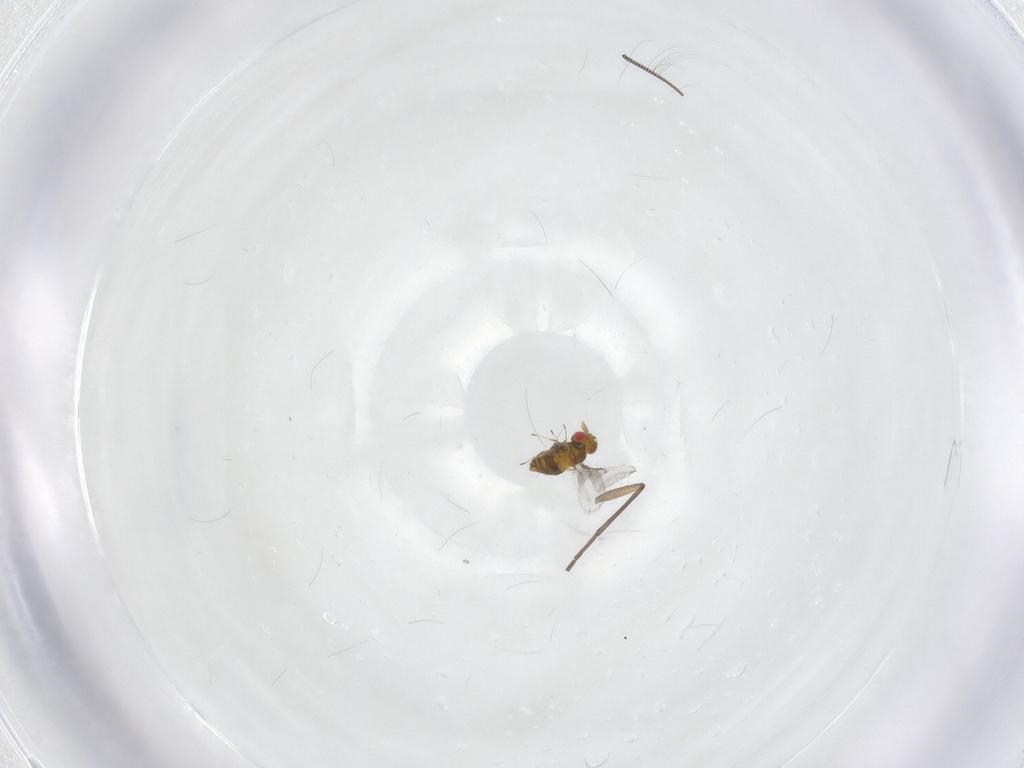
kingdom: Animalia
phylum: Arthropoda
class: Insecta
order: Hymenoptera
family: Trichogrammatidae
